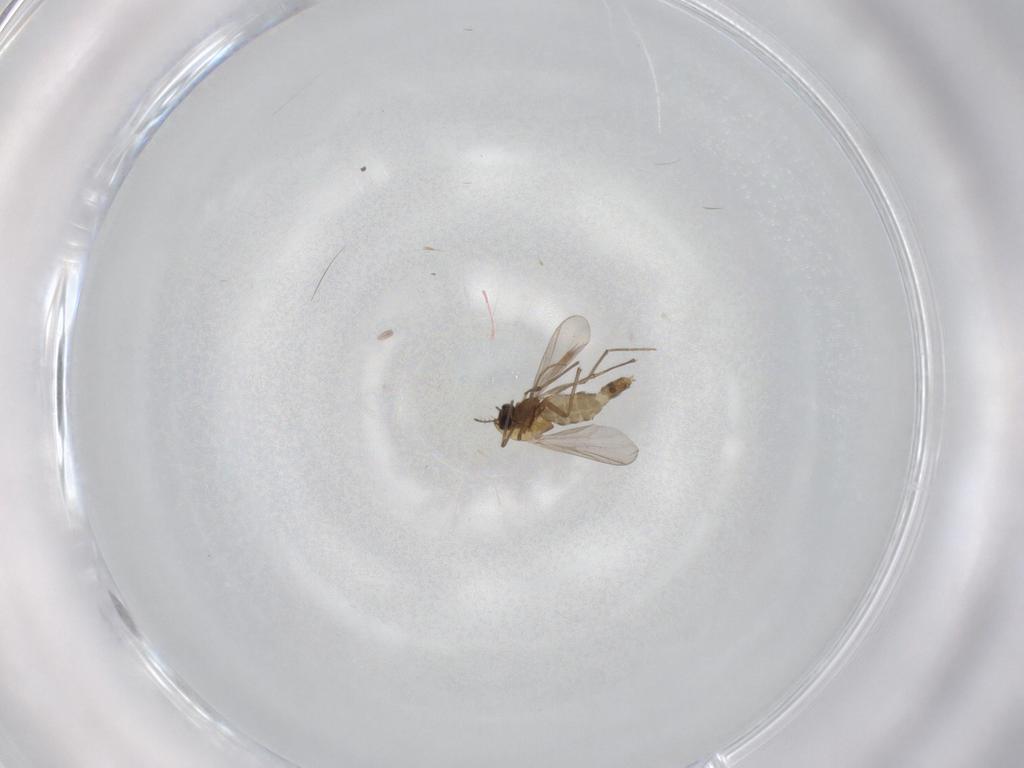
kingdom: Animalia
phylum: Arthropoda
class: Insecta
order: Diptera
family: Chironomidae
